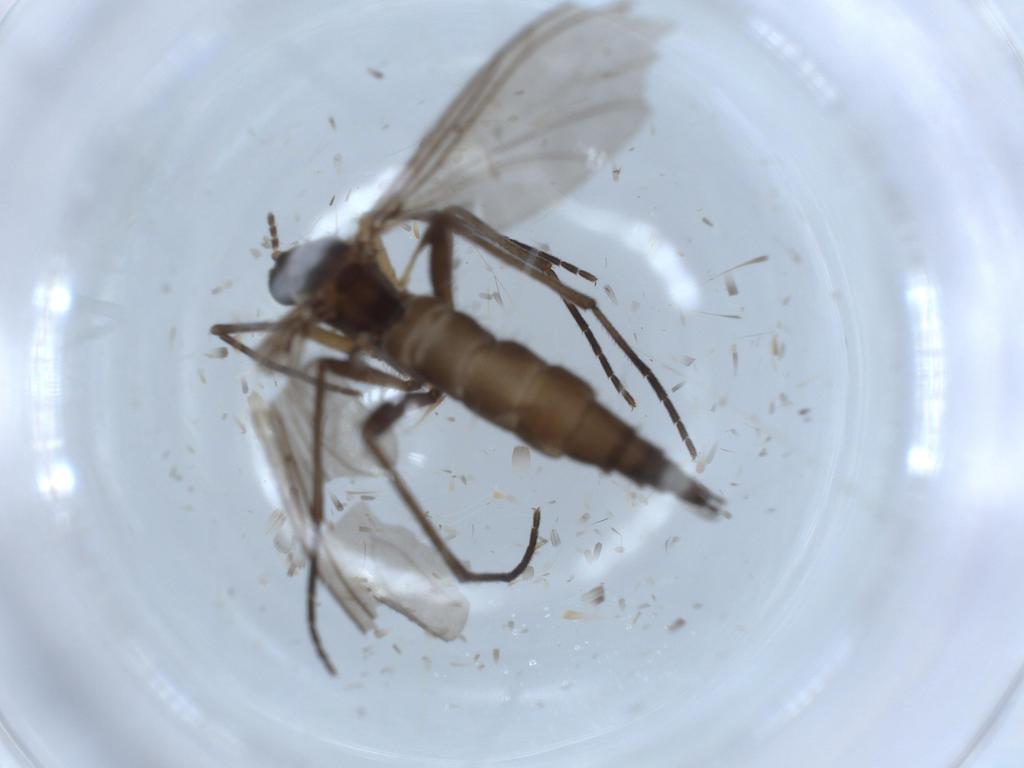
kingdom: Animalia
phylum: Arthropoda
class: Insecta
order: Diptera
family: Sciaridae
